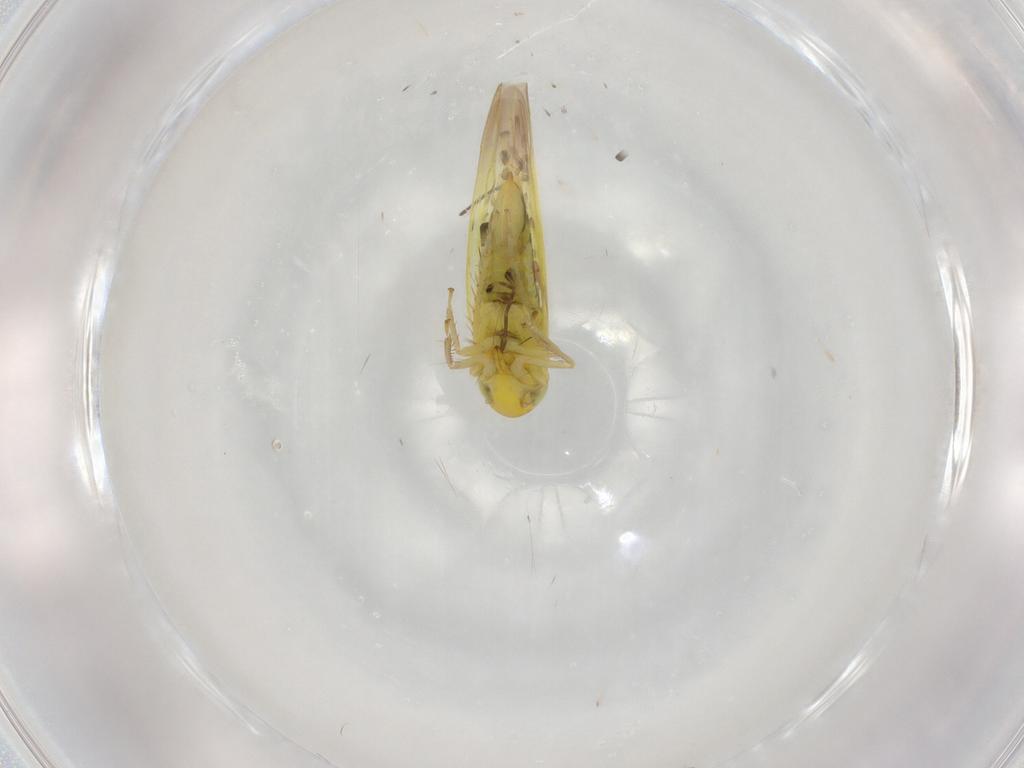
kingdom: Animalia
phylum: Arthropoda
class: Insecta
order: Hemiptera
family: Cicadellidae
